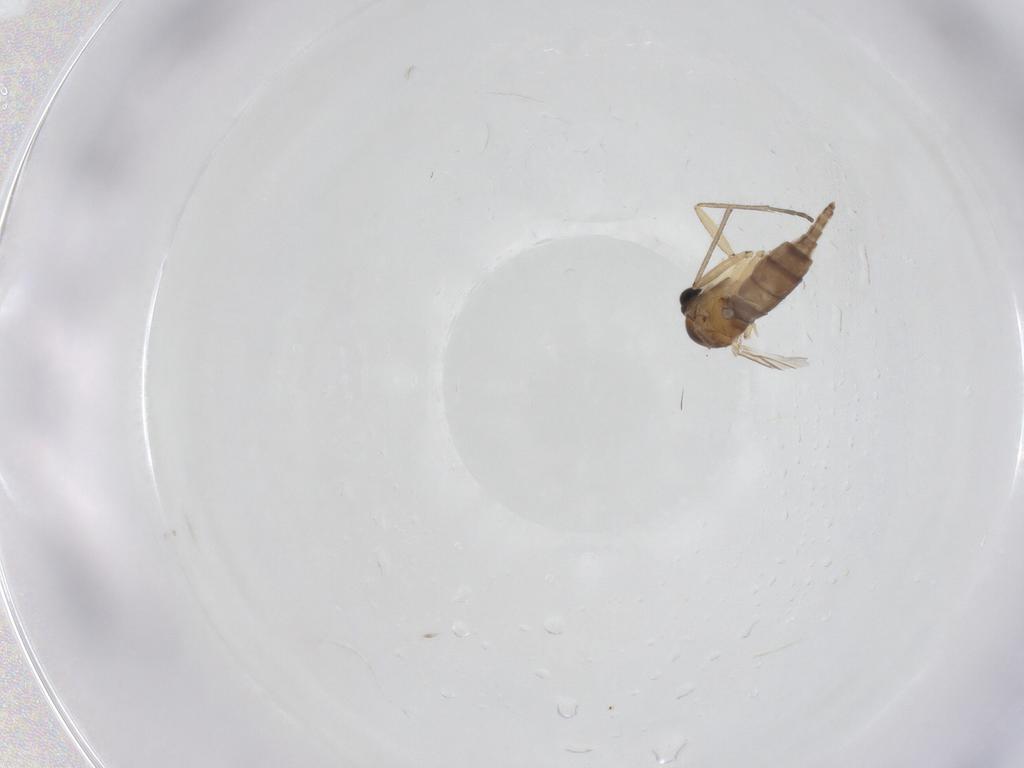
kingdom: Animalia
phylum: Arthropoda
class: Insecta
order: Diptera
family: Sciaridae
